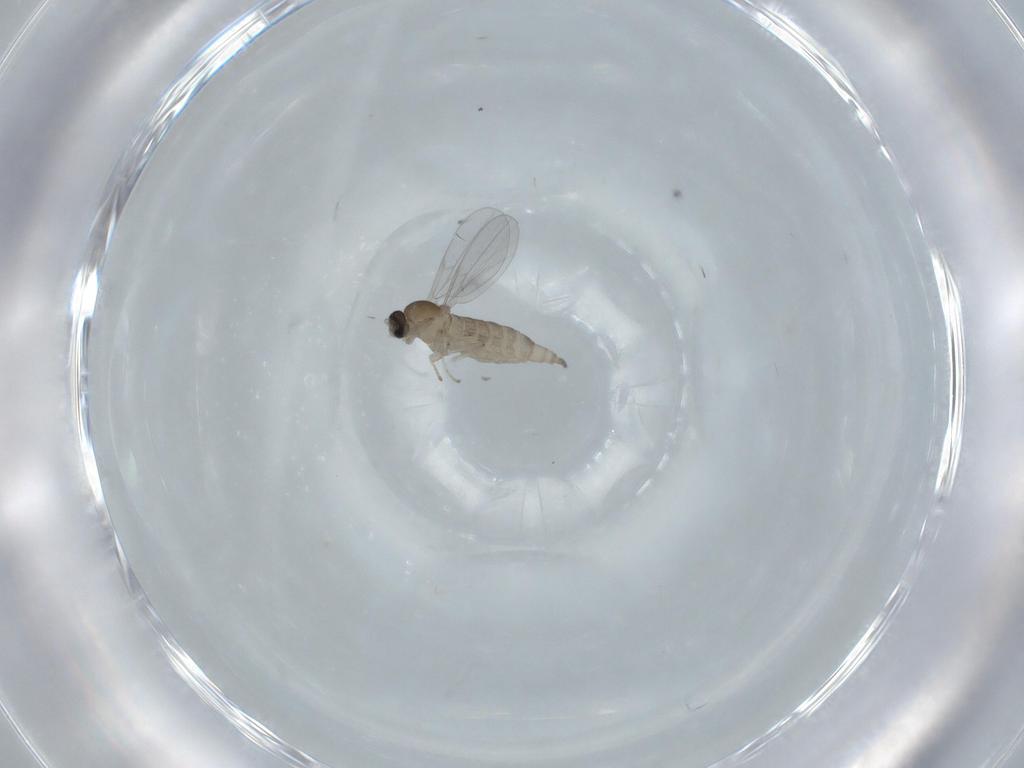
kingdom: Animalia
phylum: Arthropoda
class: Insecta
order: Diptera
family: Cecidomyiidae
